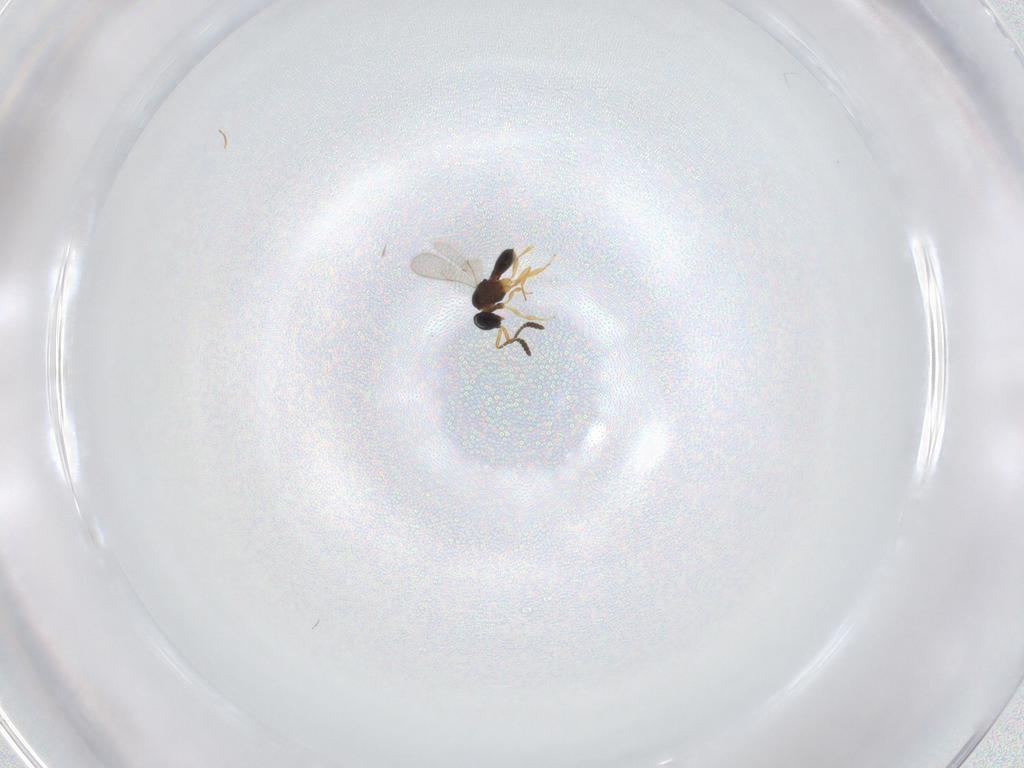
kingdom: Animalia
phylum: Arthropoda
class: Insecta
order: Hymenoptera
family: Scelionidae
